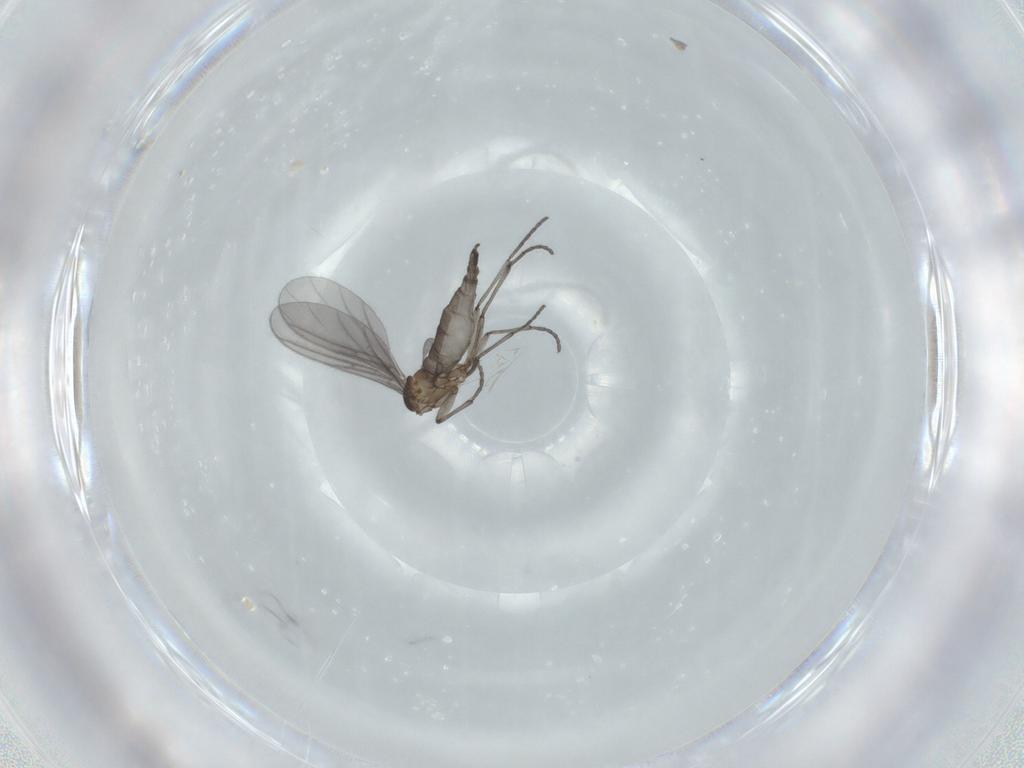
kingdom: Animalia
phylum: Arthropoda
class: Insecta
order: Diptera
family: Sciaridae
